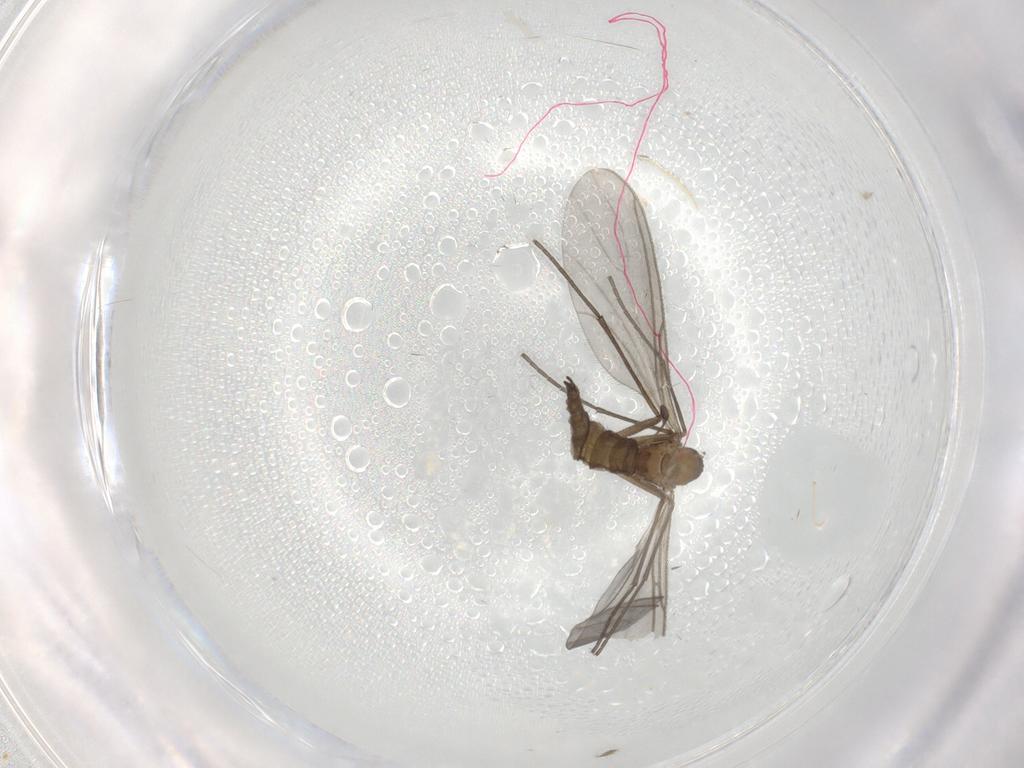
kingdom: Animalia
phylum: Arthropoda
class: Insecta
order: Diptera
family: Sciaridae
